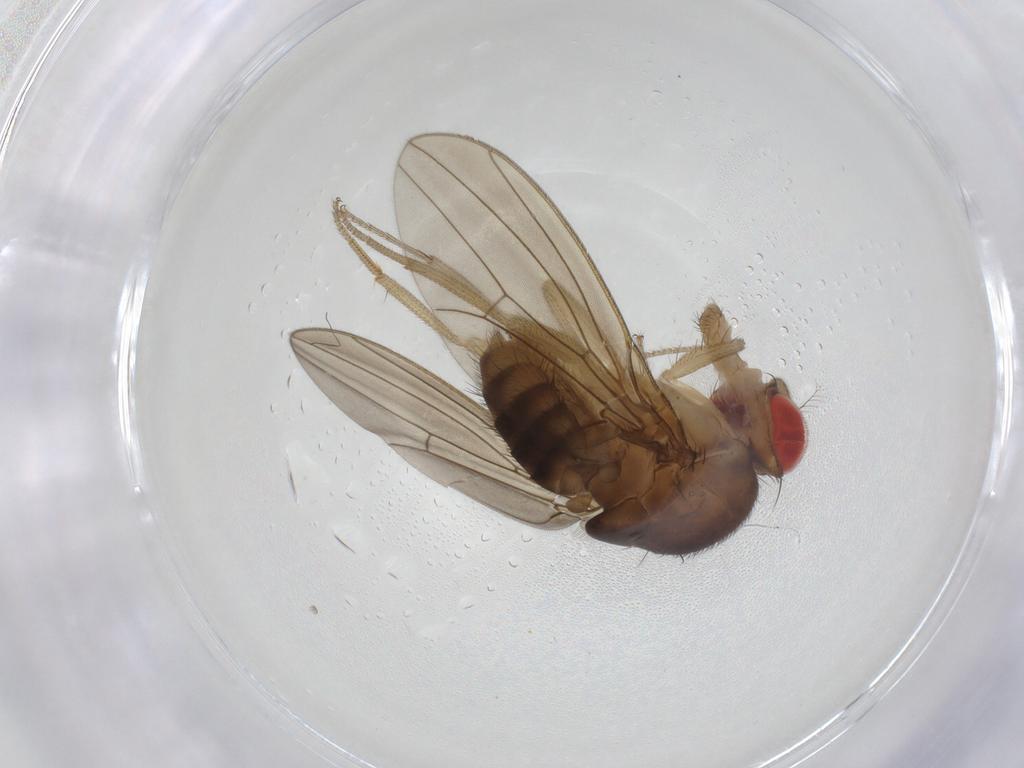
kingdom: Animalia
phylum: Arthropoda
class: Insecta
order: Diptera
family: Drosophilidae
